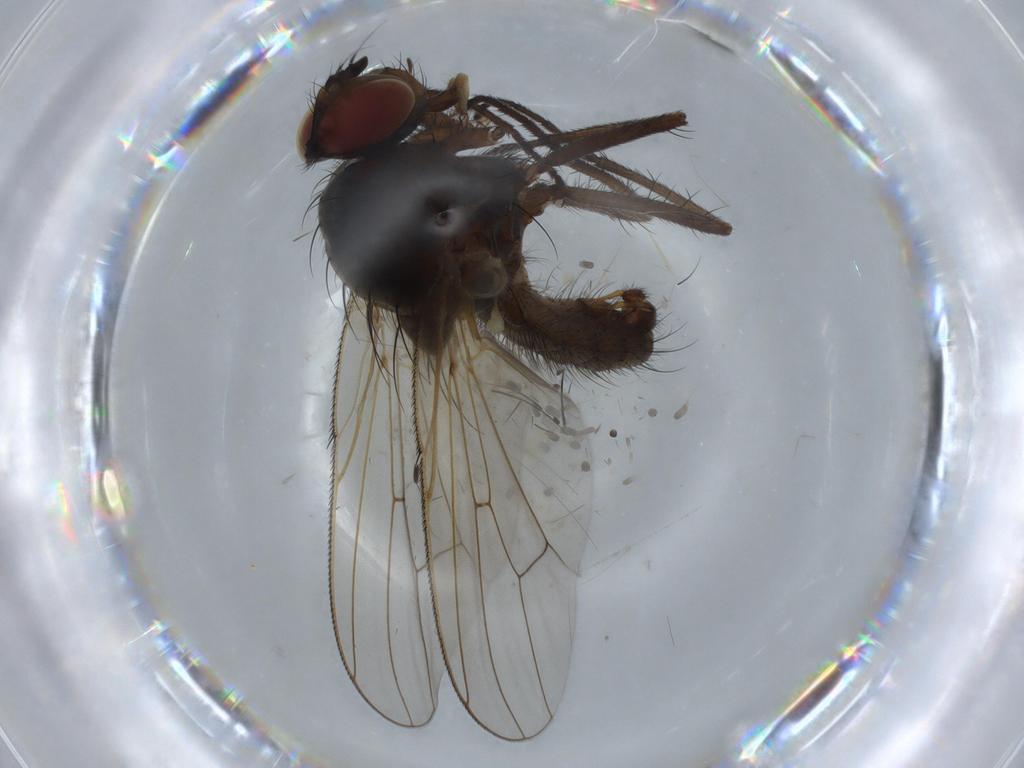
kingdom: Animalia
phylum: Arthropoda
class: Insecta
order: Diptera
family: Anthomyiidae
